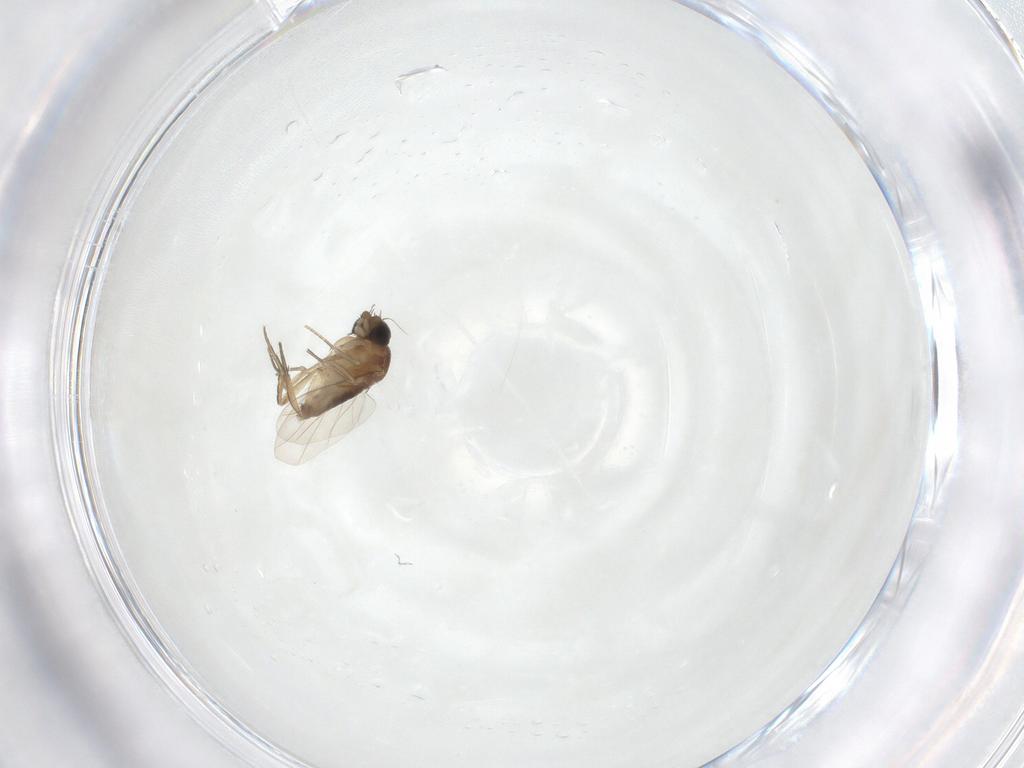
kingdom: Animalia
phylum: Arthropoda
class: Insecta
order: Diptera
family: Phoridae
